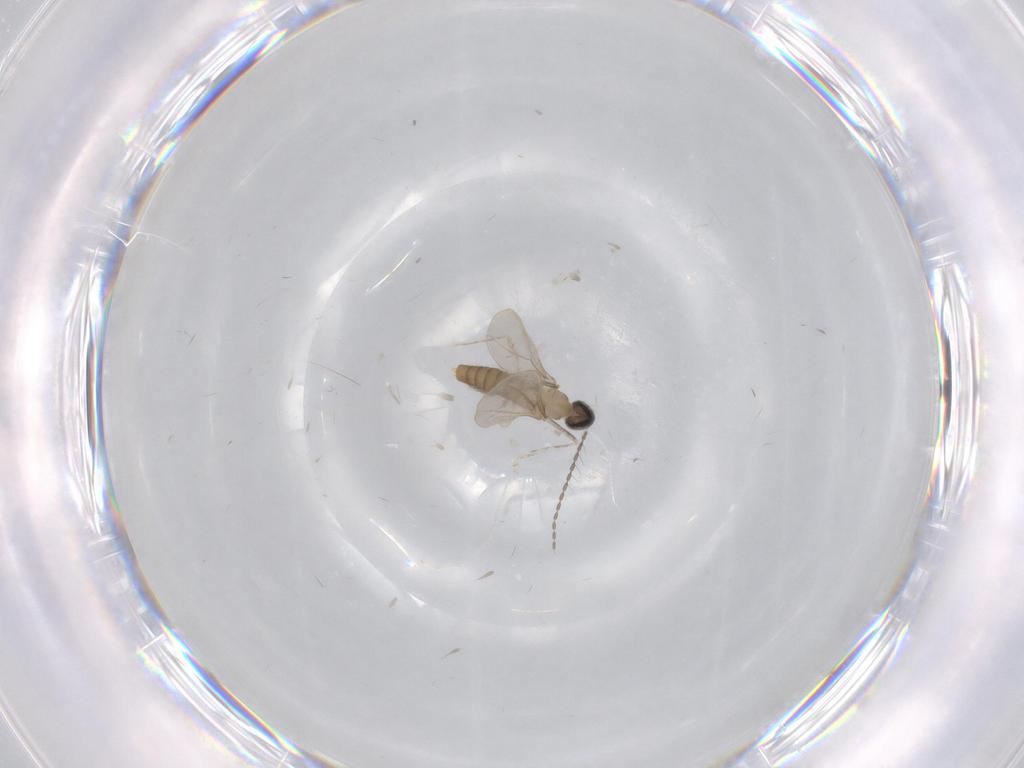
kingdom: Animalia
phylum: Arthropoda
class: Insecta
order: Diptera
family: Cecidomyiidae
